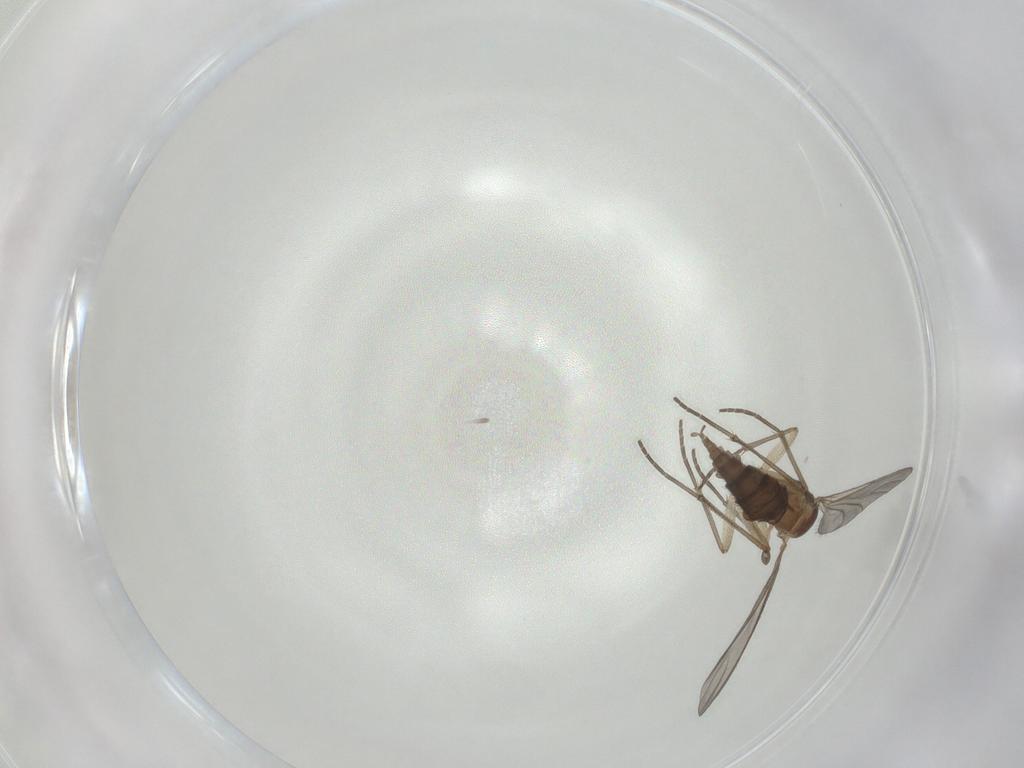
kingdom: Animalia
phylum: Arthropoda
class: Insecta
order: Diptera
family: Sciaridae
